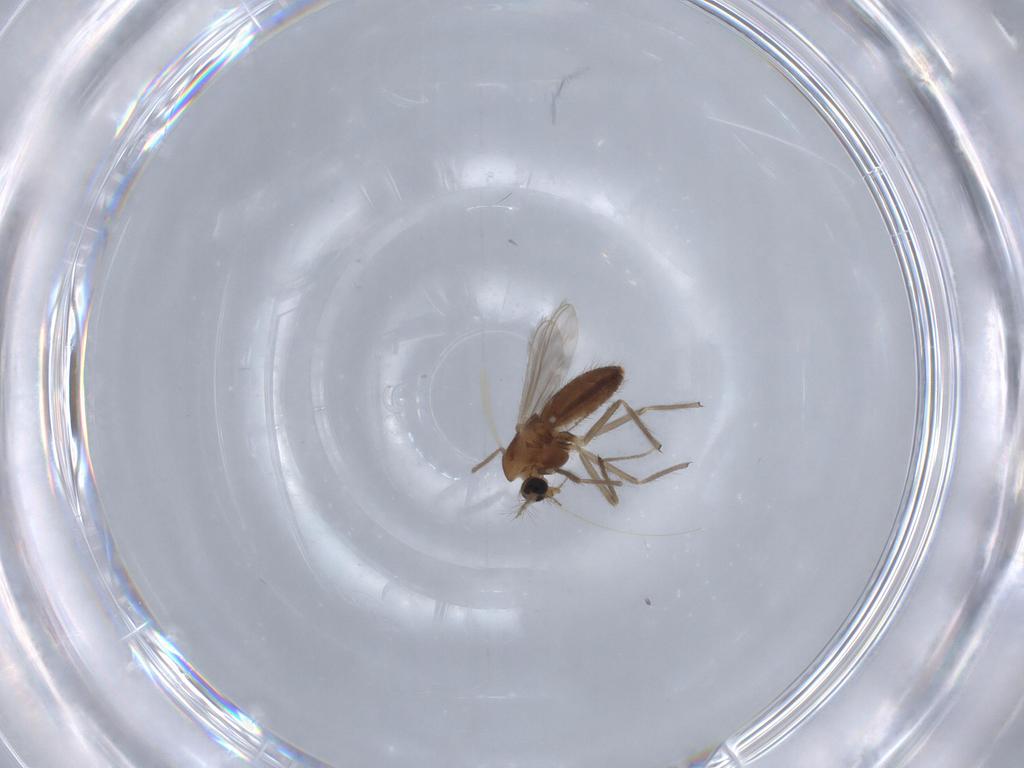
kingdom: Animalia
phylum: Arthropoda
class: Insecta
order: Diptera
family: Chironomidae
